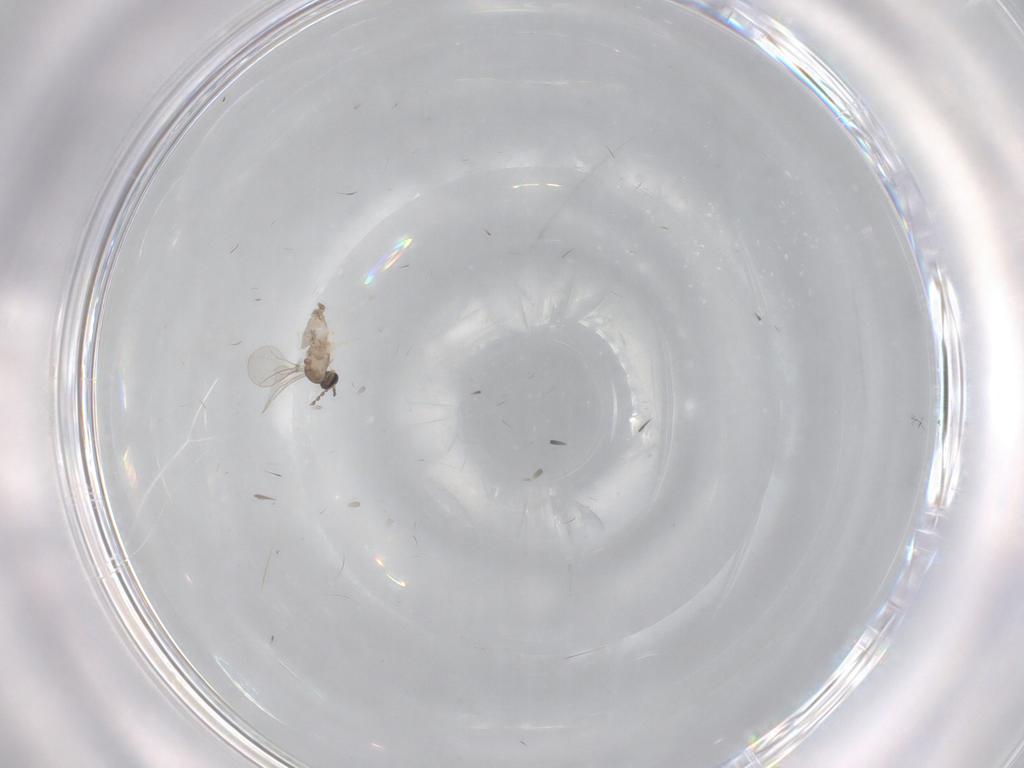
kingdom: Animalia
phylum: Arthropoda
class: Insecta
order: Diptera
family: Cecidomyiidae
